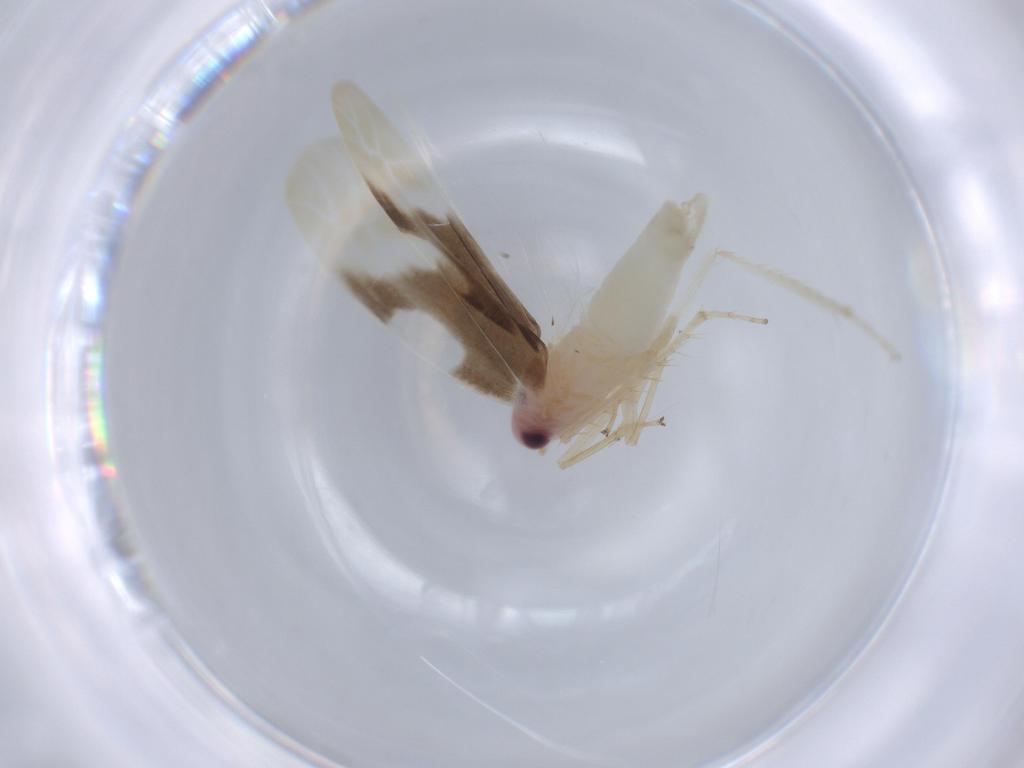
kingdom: Animalia
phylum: Arthropoda
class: Insecta
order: Hemiptera
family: Cicadellidae
